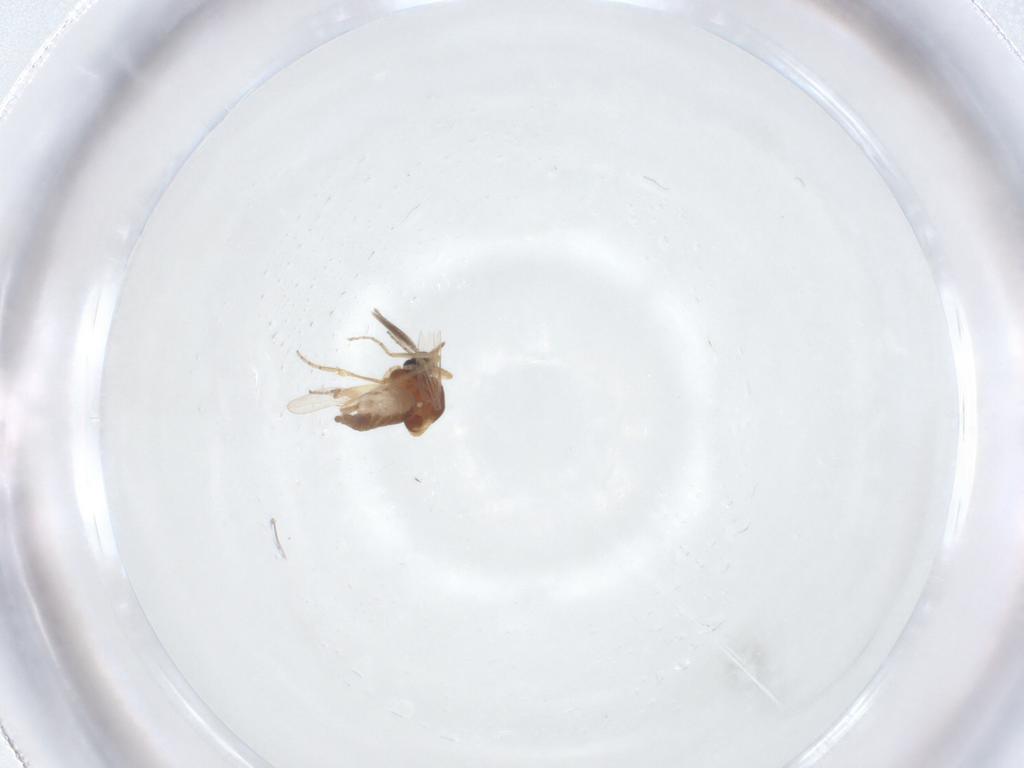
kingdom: Animalia
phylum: Arthropoda
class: Insecta
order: Diptera
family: Ceratopogonidae
